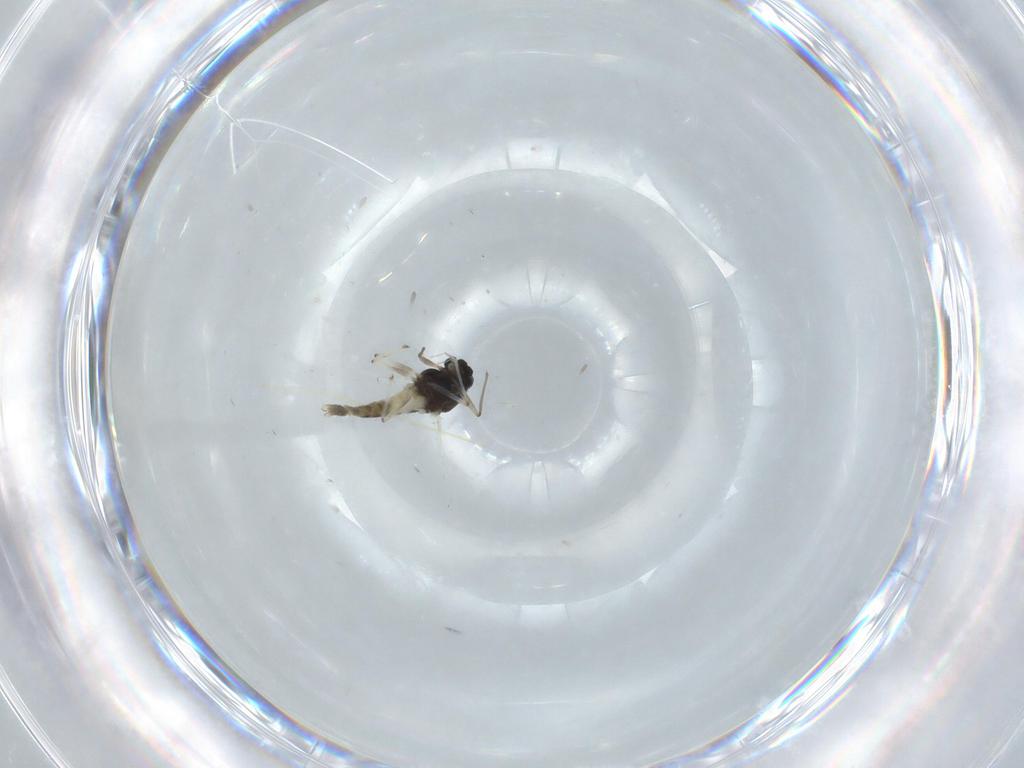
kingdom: Animalia
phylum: Arthropoda
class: Insecta
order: Diptera
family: Chironomidae
